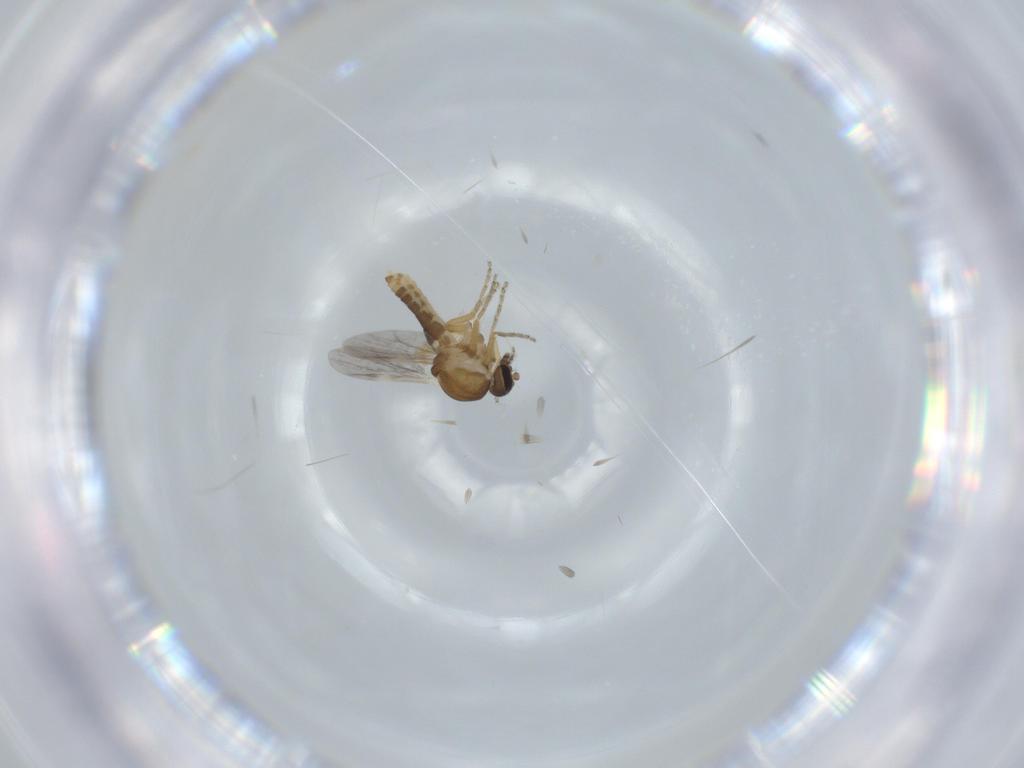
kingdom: Animalia
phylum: Arthropoda
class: Insecta
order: Diptera
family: Ceratopogonidae
